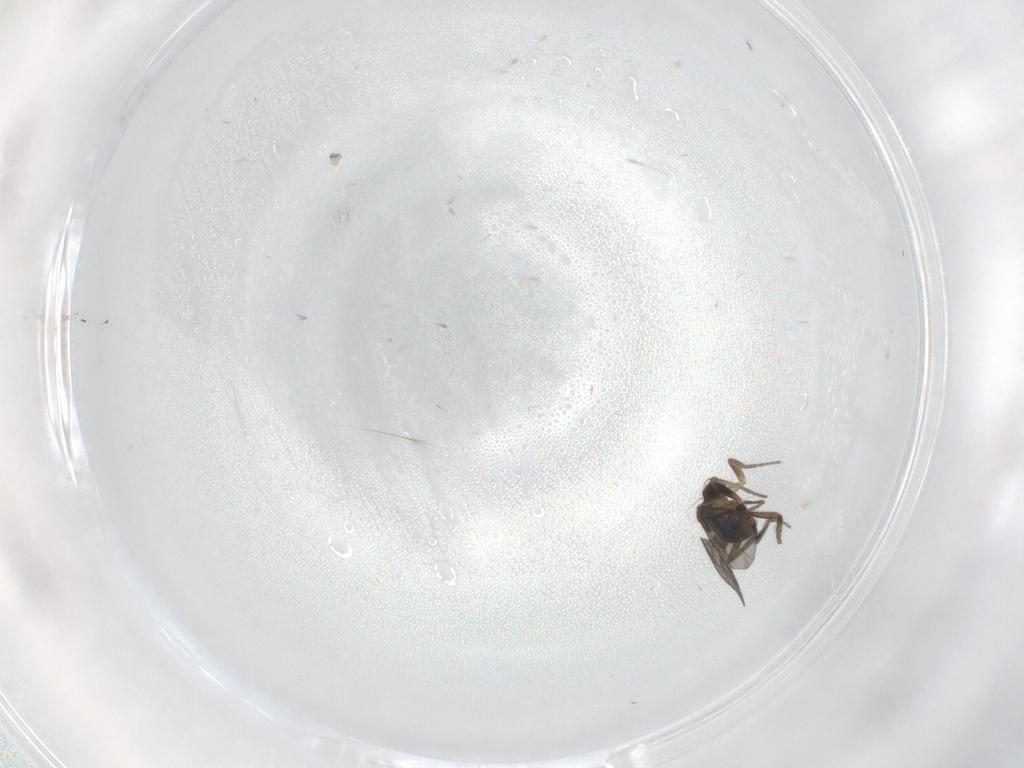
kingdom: Animalia
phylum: Arthropoda
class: Insecta
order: Diptera
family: Phoridae
